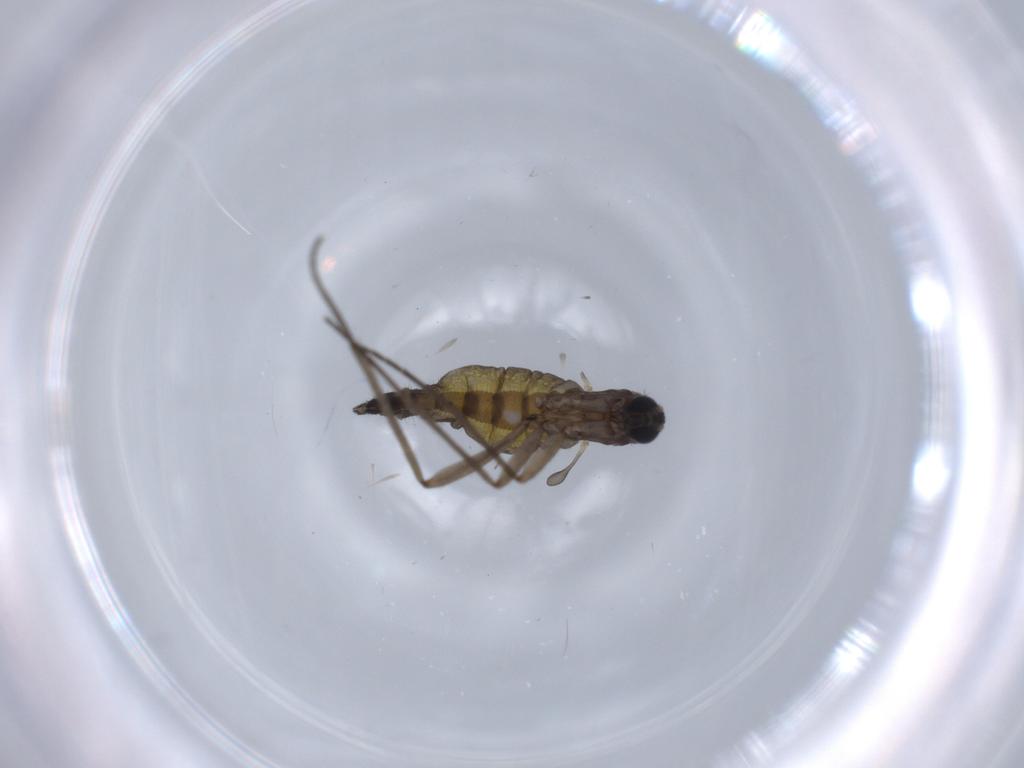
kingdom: Animalia
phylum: Arthropoda
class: Insecta
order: Diptera
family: Sciaridae
